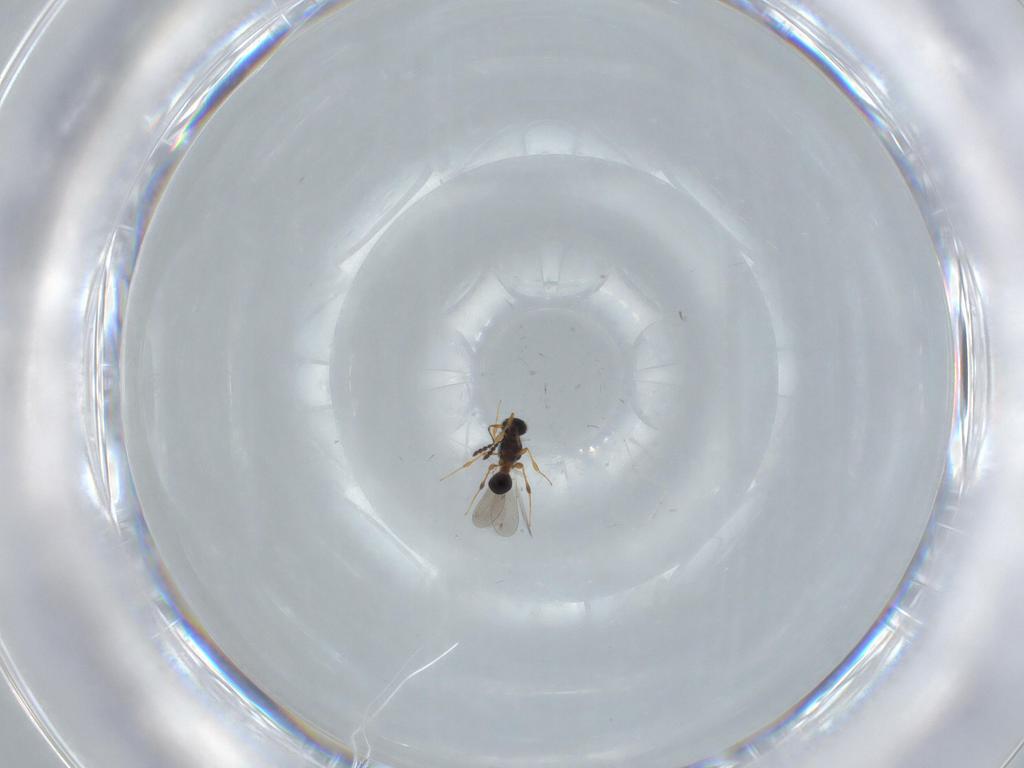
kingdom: Animalia
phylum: Arthropoda
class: Insecta
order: Hymenoptera
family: Platygastridae
